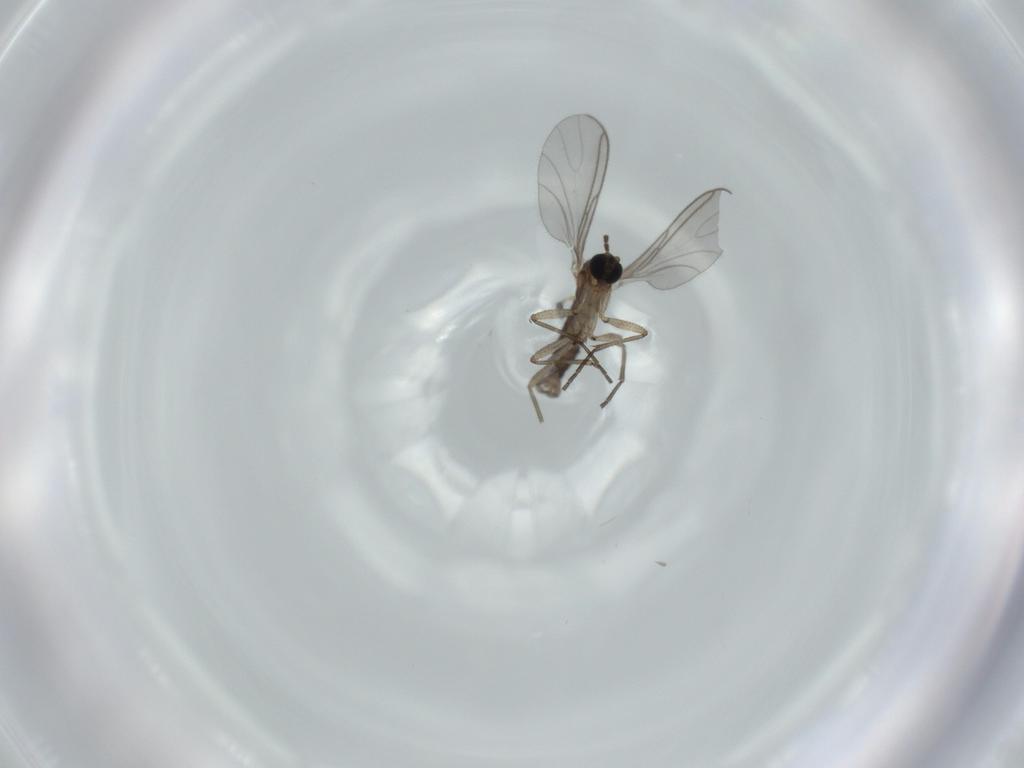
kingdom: Animalia
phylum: Arthropoda
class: Insecta
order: Diptera
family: Sciaridae
